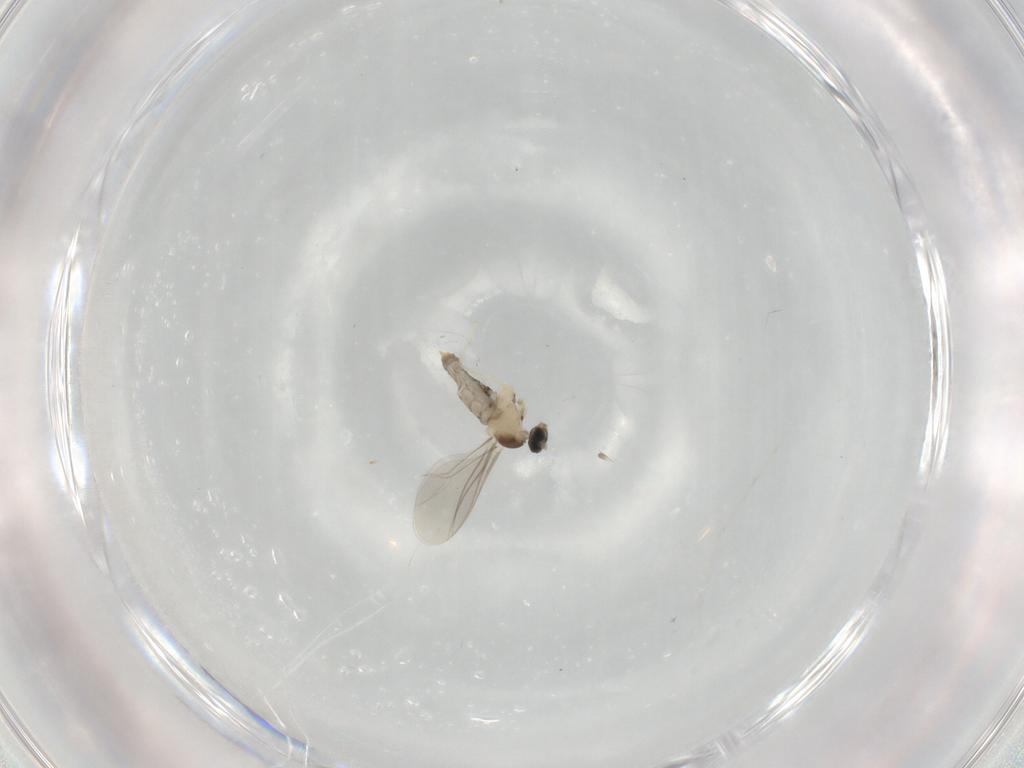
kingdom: Animalia
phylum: Arthropoda
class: Insecta
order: Diptera
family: Cecidomyiidae
